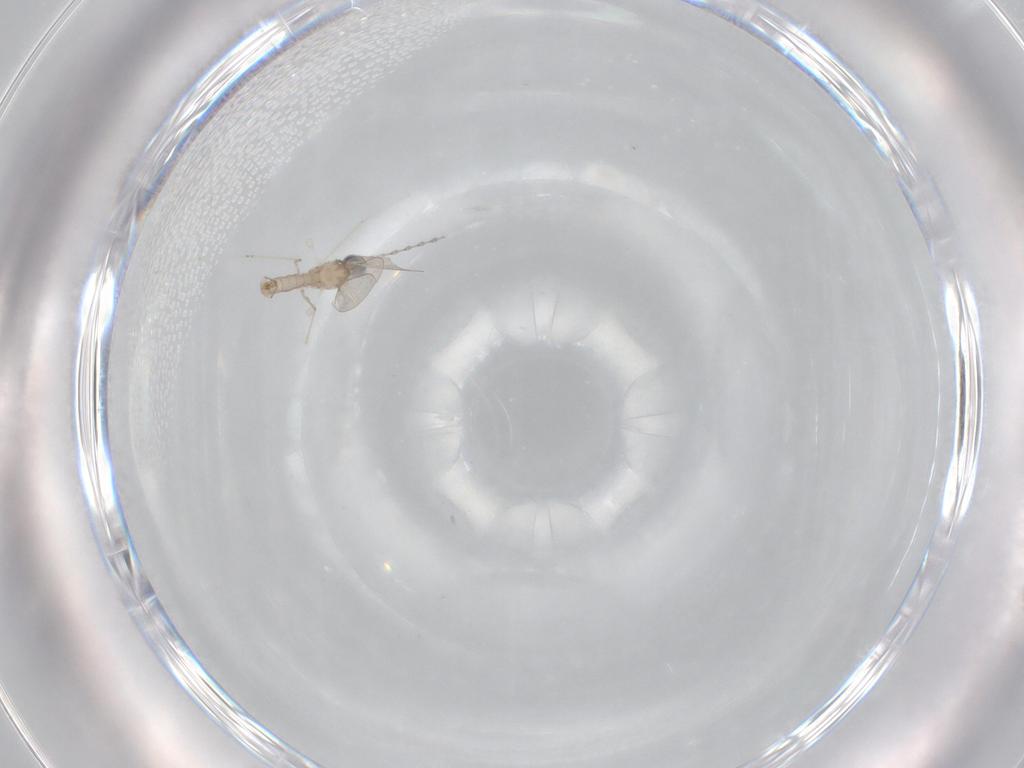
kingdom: Animalia
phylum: Arthropoda
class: Insecta
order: Diptera
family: Cecidomyiidae
